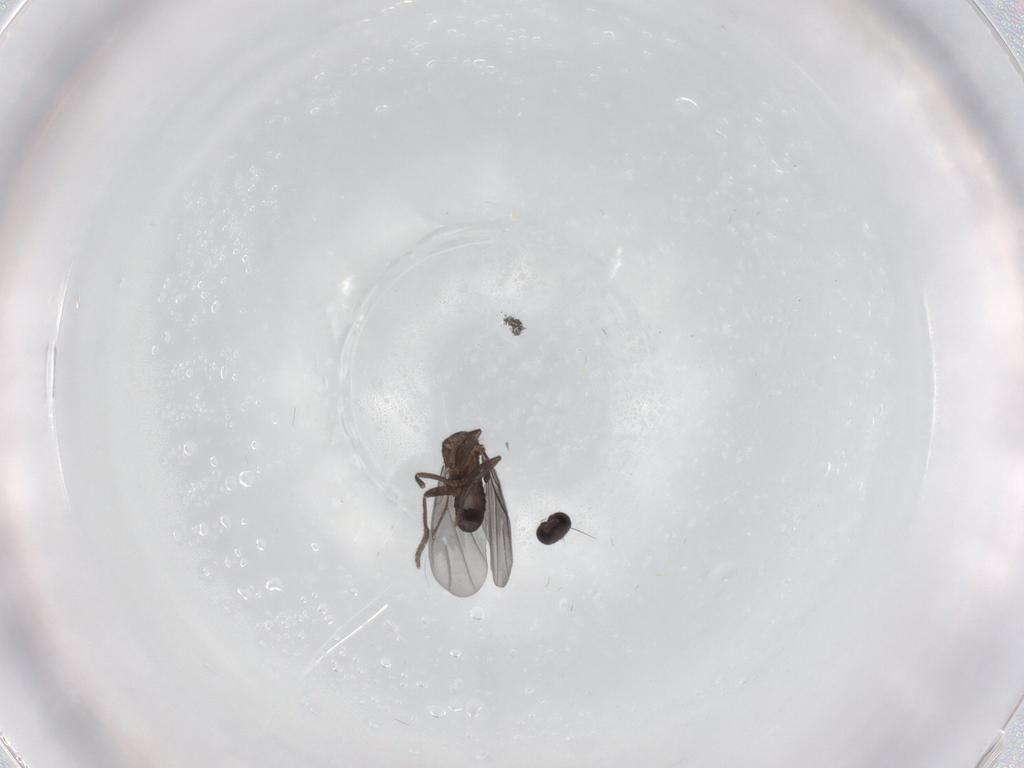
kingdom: Animalia
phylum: Arthropoda
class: Insecta
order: Diptera
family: Phoridae
